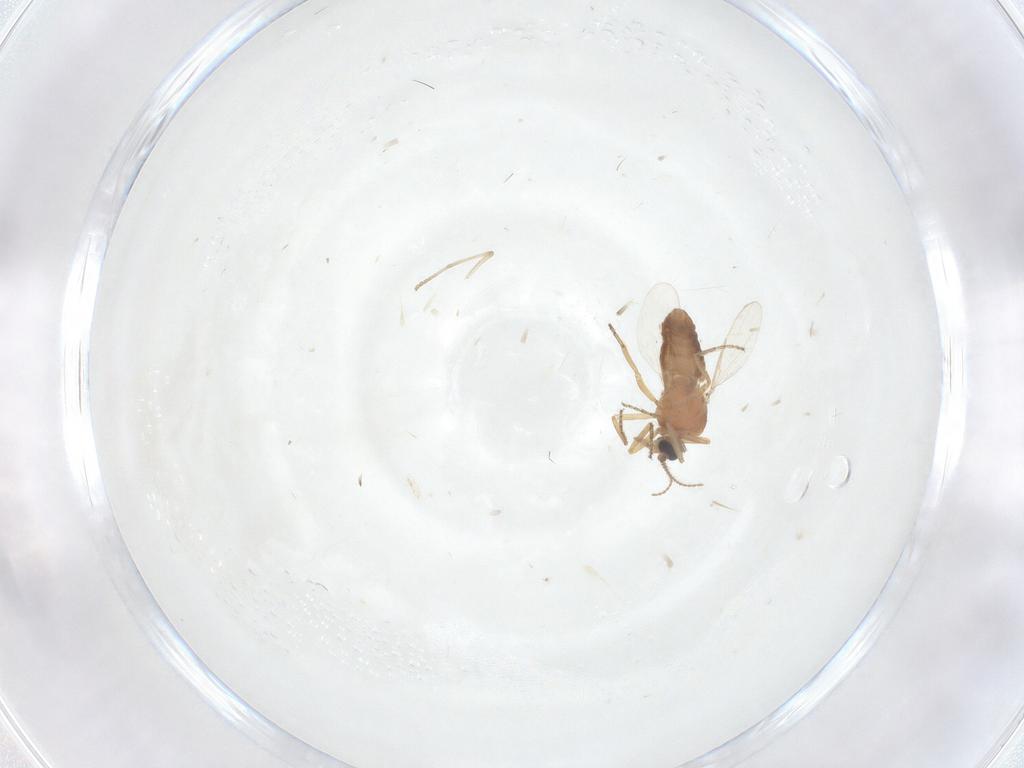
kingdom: Animalia
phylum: Arthropoda
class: Insecta
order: Diptera
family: Ceratopogonidae
